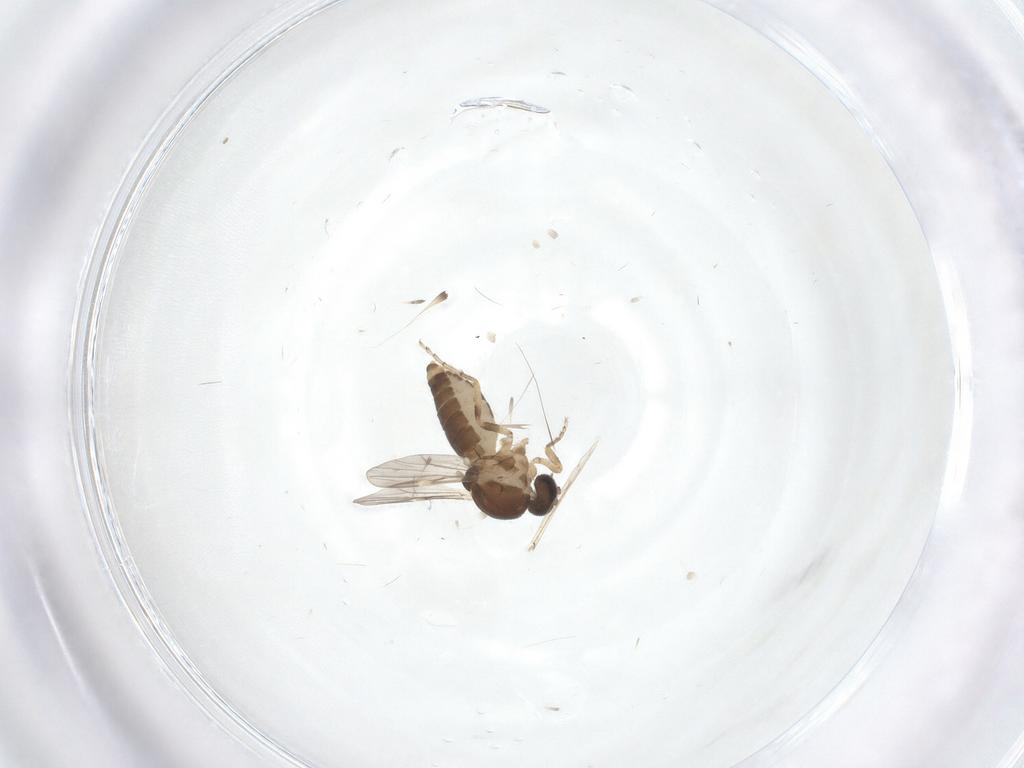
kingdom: Animalia
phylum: Arthropoda
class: Insecta
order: Diptera
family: Ceratopogonidae
